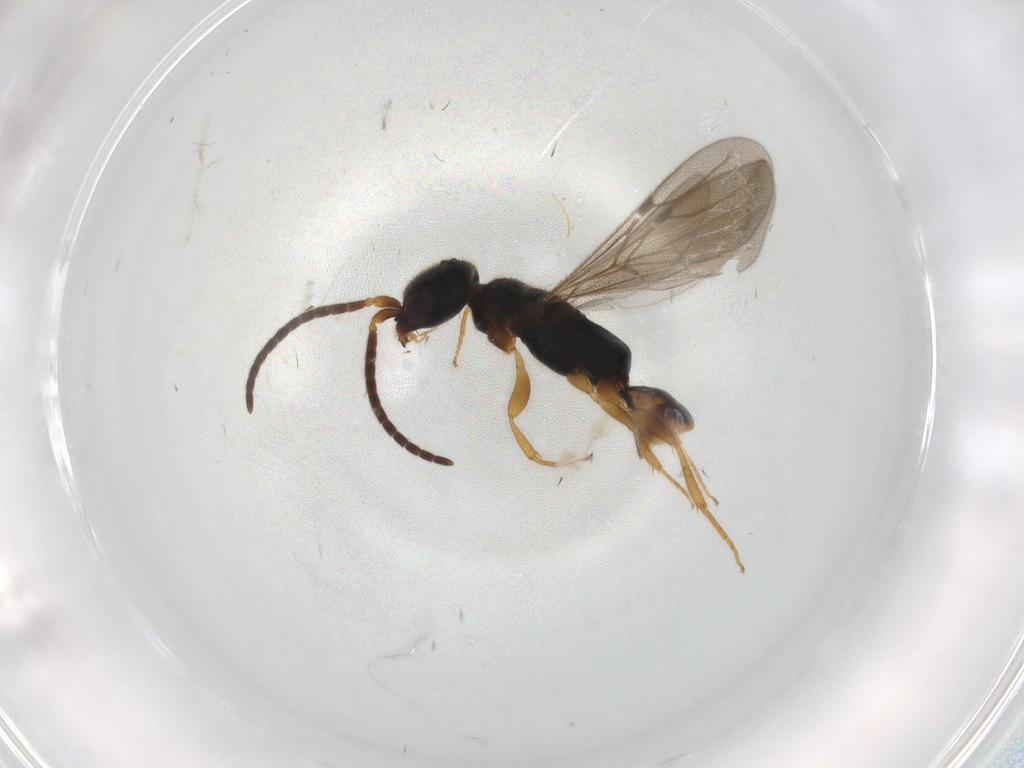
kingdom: Animalia
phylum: Arthropoda
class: Insecta
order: Hymenoptera
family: Bethylidae
